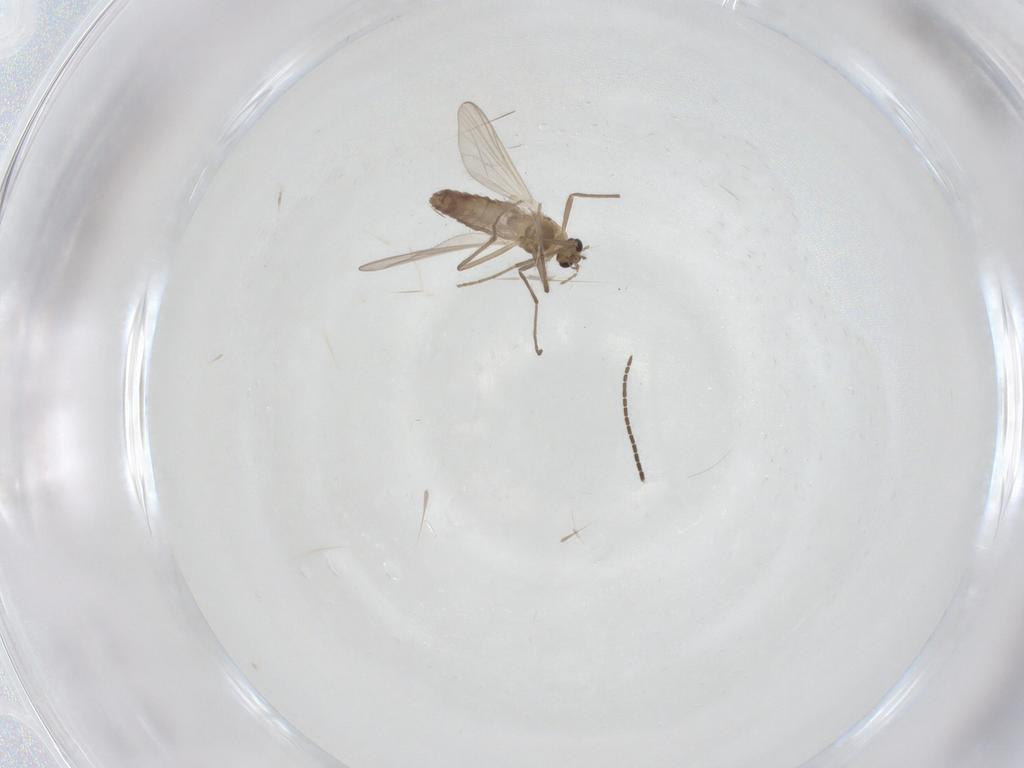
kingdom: Animalia
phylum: Arthropoda
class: Insecta
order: Diptera
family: Chironomidae
